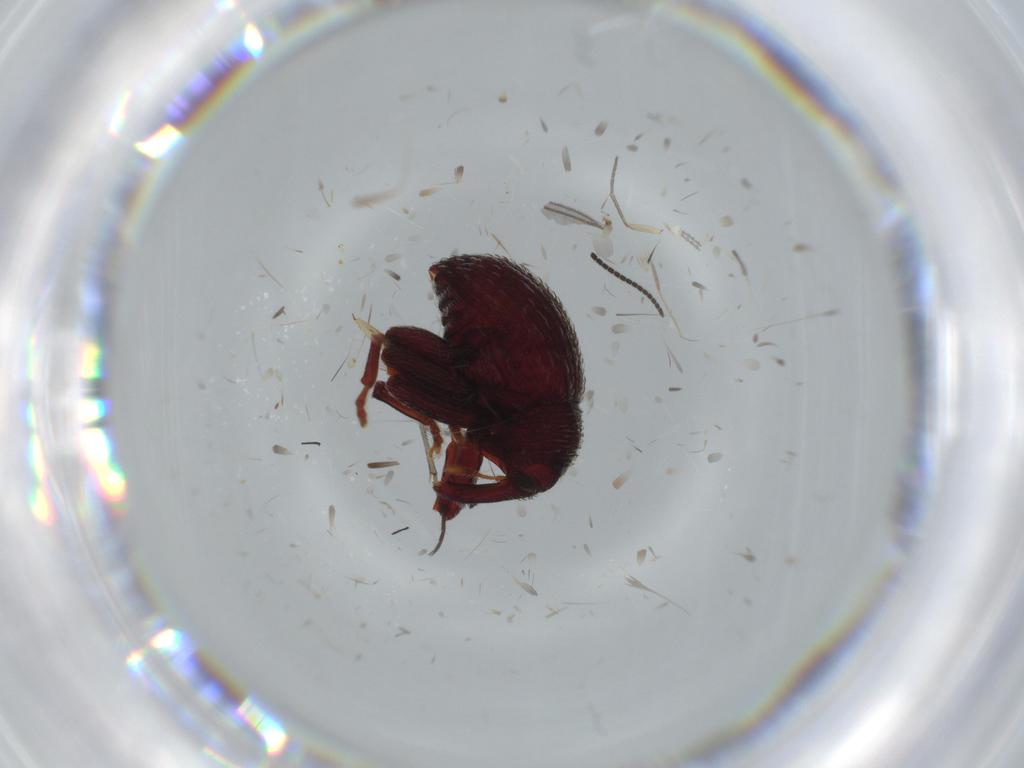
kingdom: Animalia
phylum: Arthropoda
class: Insecta
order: Coleoptera
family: Curculionidae
